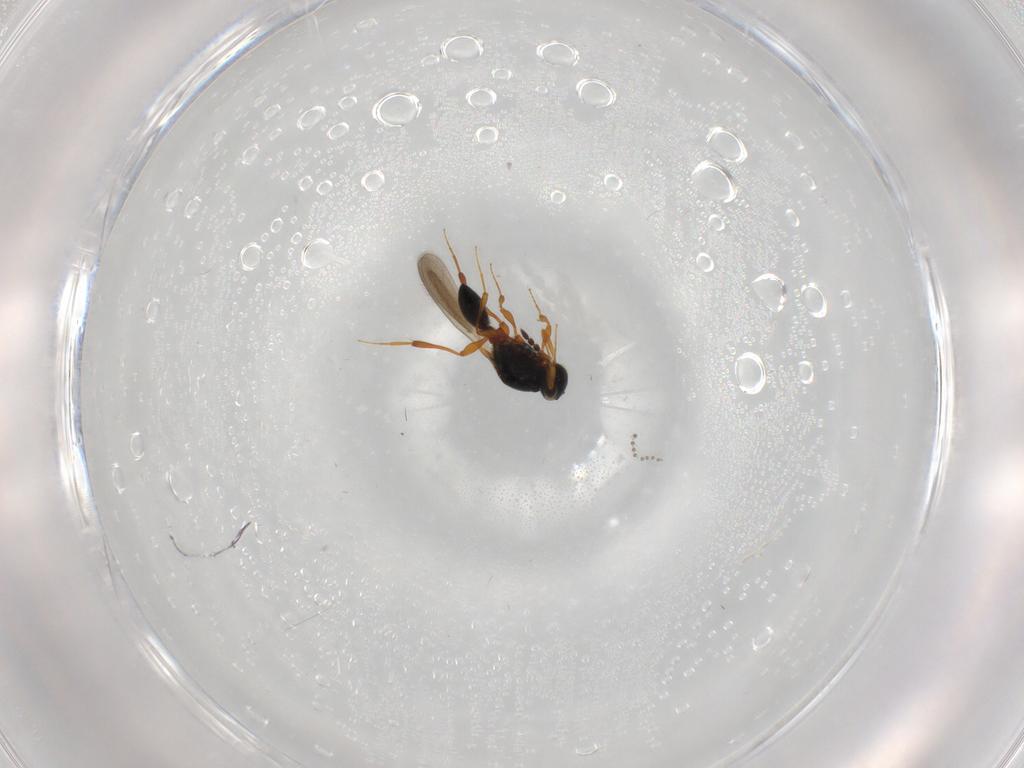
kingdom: Animalia
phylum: Arthropoda
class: Insecta
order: Hymenoptera
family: Platygastridae
